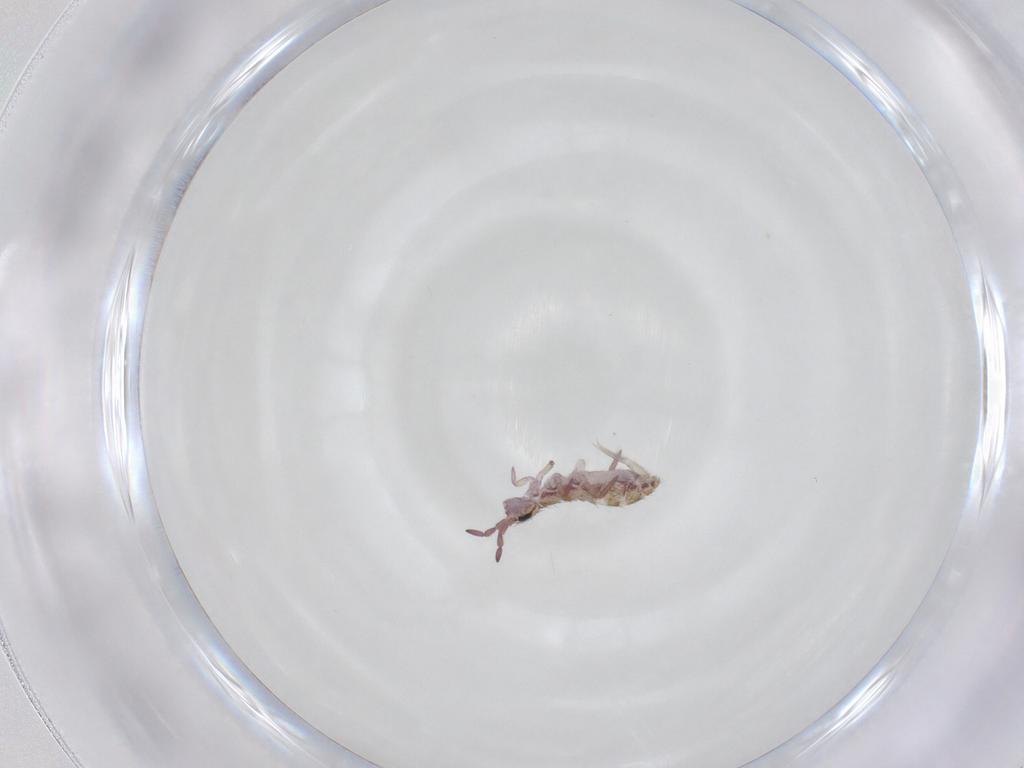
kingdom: Animalia
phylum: Arthropoda
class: Collembola
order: Entomobryomorpha
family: Isotomidae
